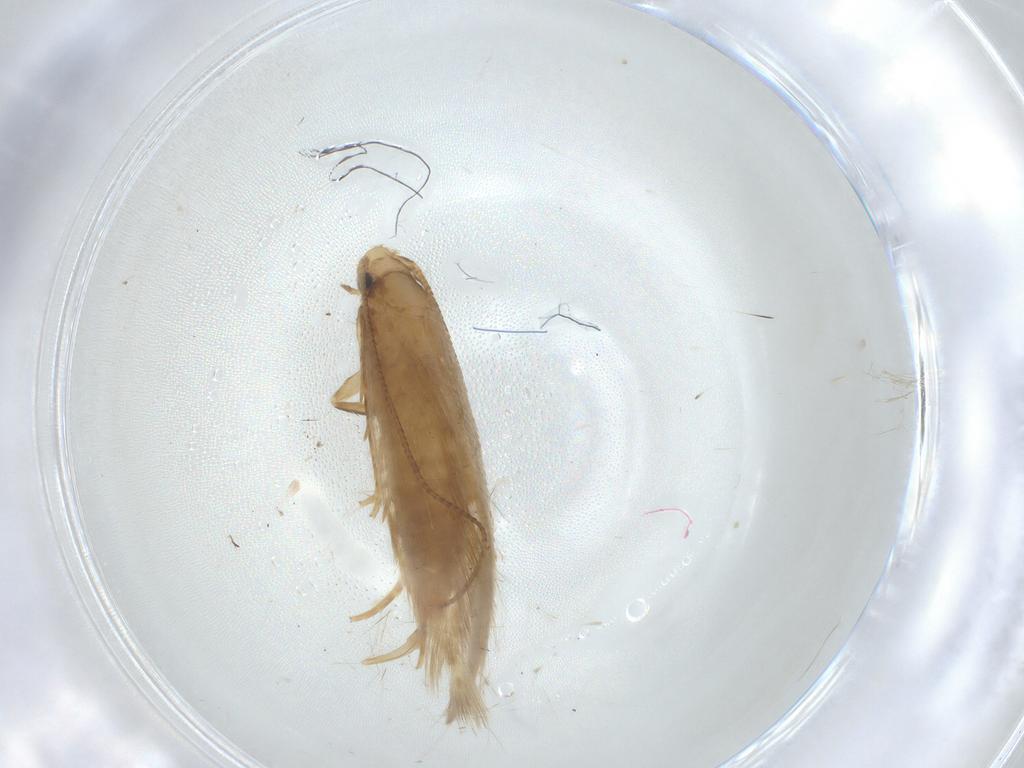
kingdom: Animalia
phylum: Arthropoda
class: Insecta
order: Lepidoptera
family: Tineidae
